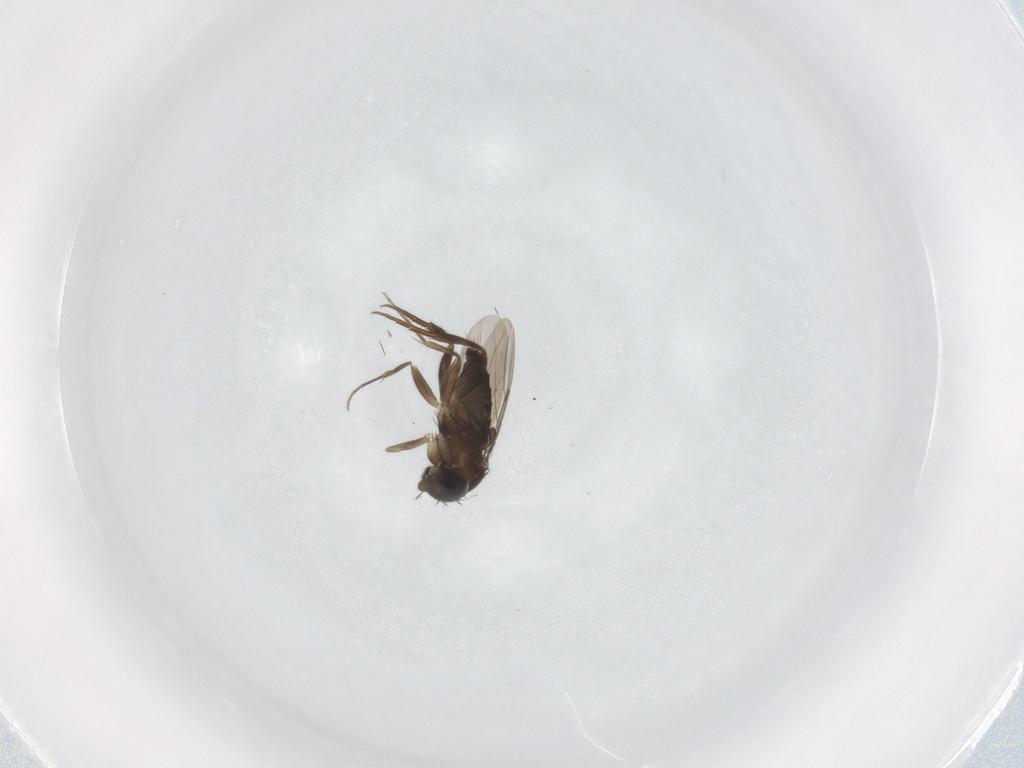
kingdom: Animalia
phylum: Arthropoda
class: Insecta
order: Diptera
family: Phoridae
